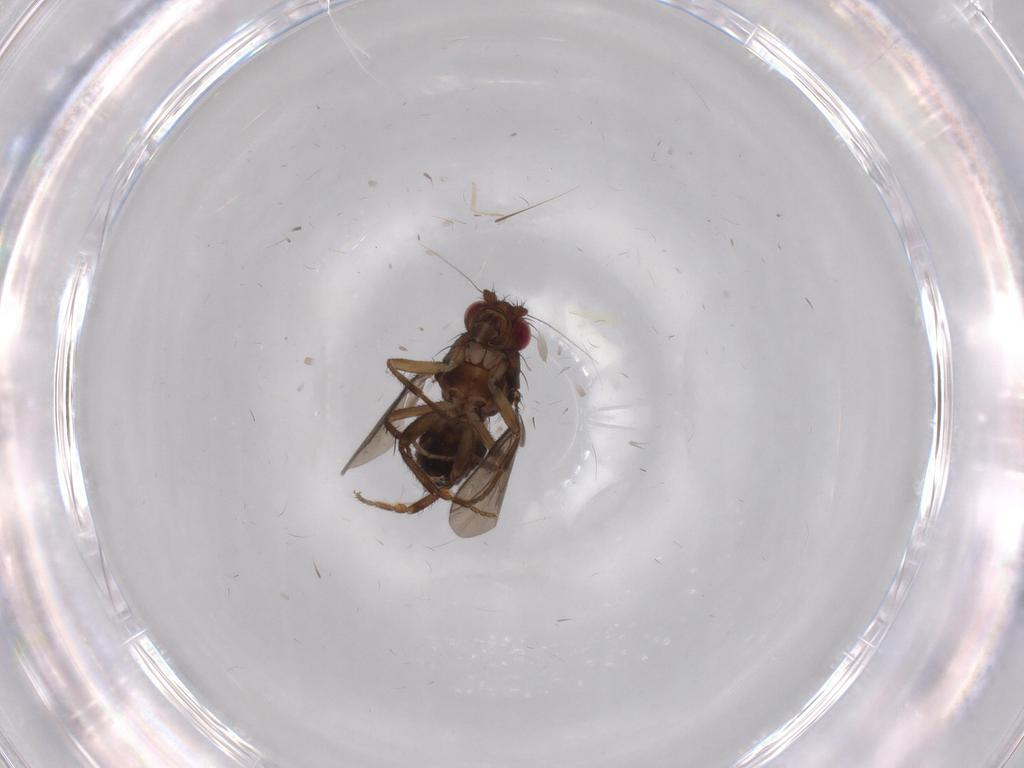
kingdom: Animalia
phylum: Arthropoda
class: Insecta
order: Diptera
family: Cecidomyiidae
